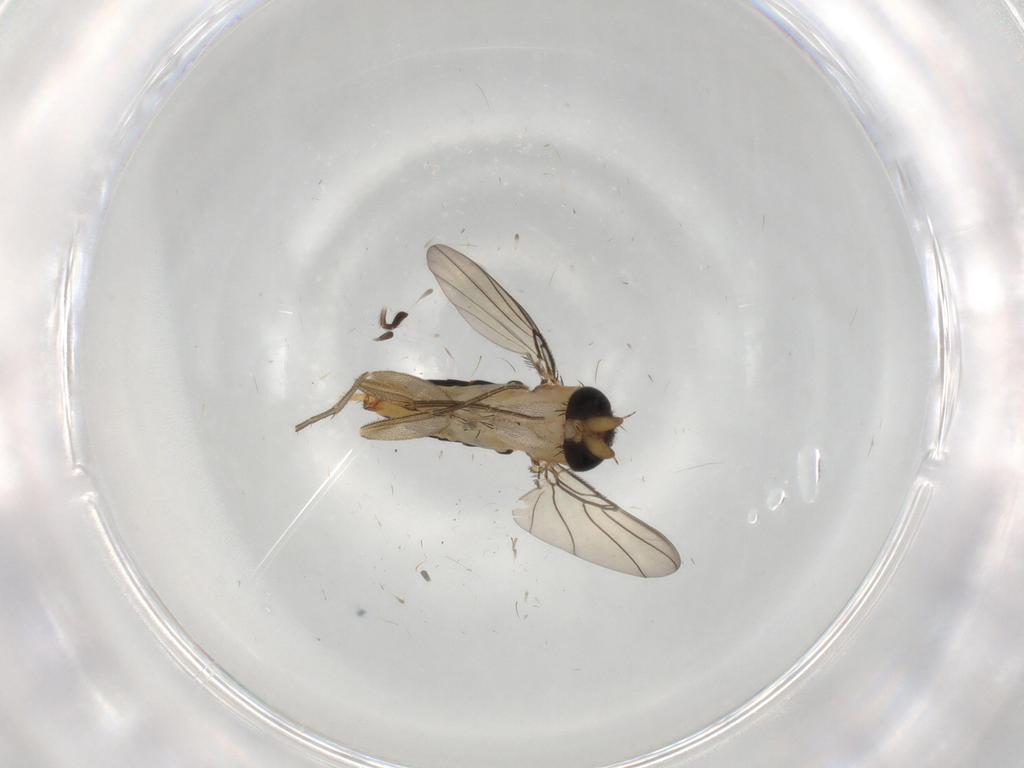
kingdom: Animalia
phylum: Arthropoda
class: Insecta
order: Diptera
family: Phoridae
